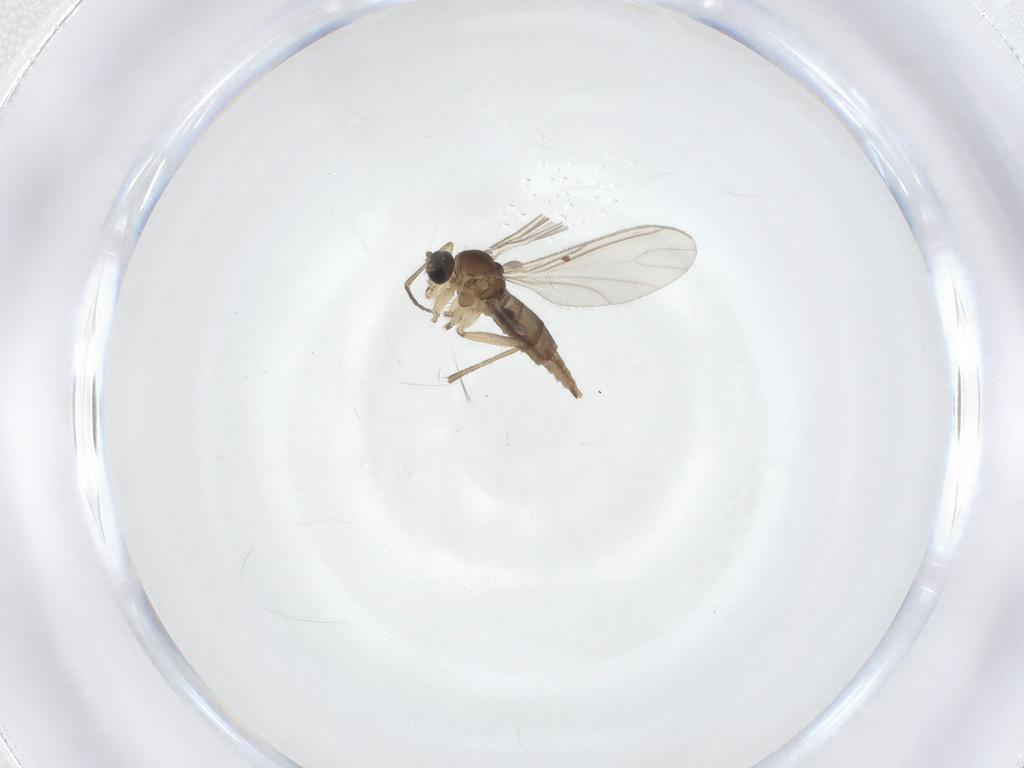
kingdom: Animalia
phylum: Arthropoda
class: Insecta
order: Diptera
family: Sciaridae
